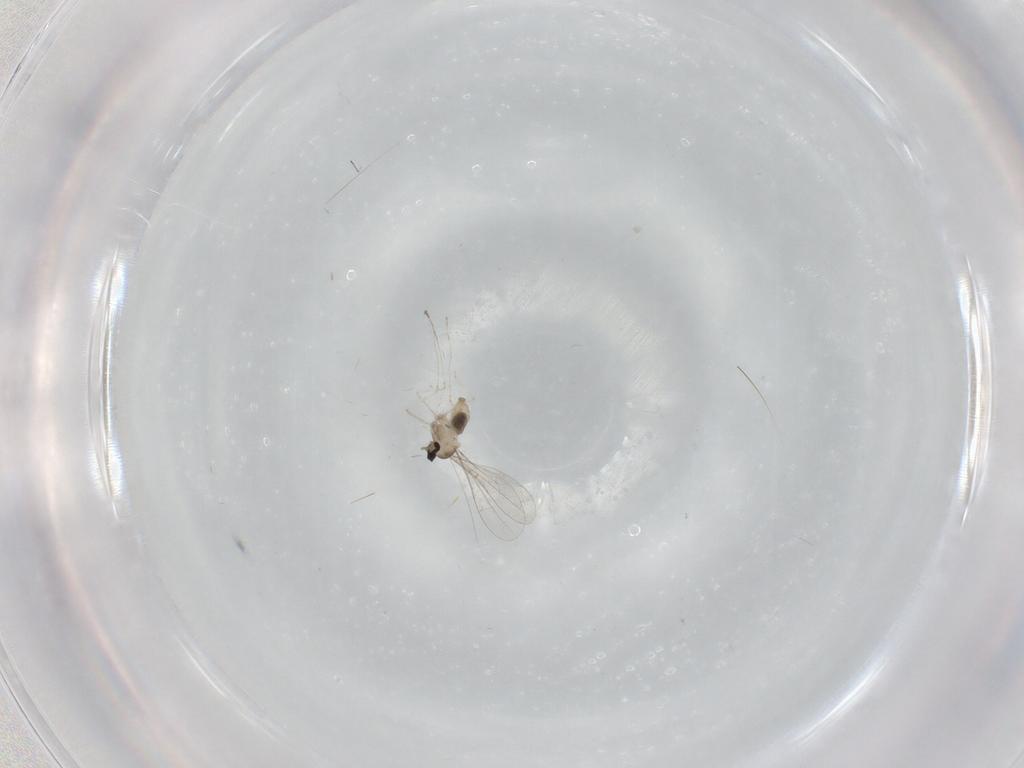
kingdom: Animalia
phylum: Arthropoda
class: Insecta
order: Diptera
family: Cecidomyiidae
